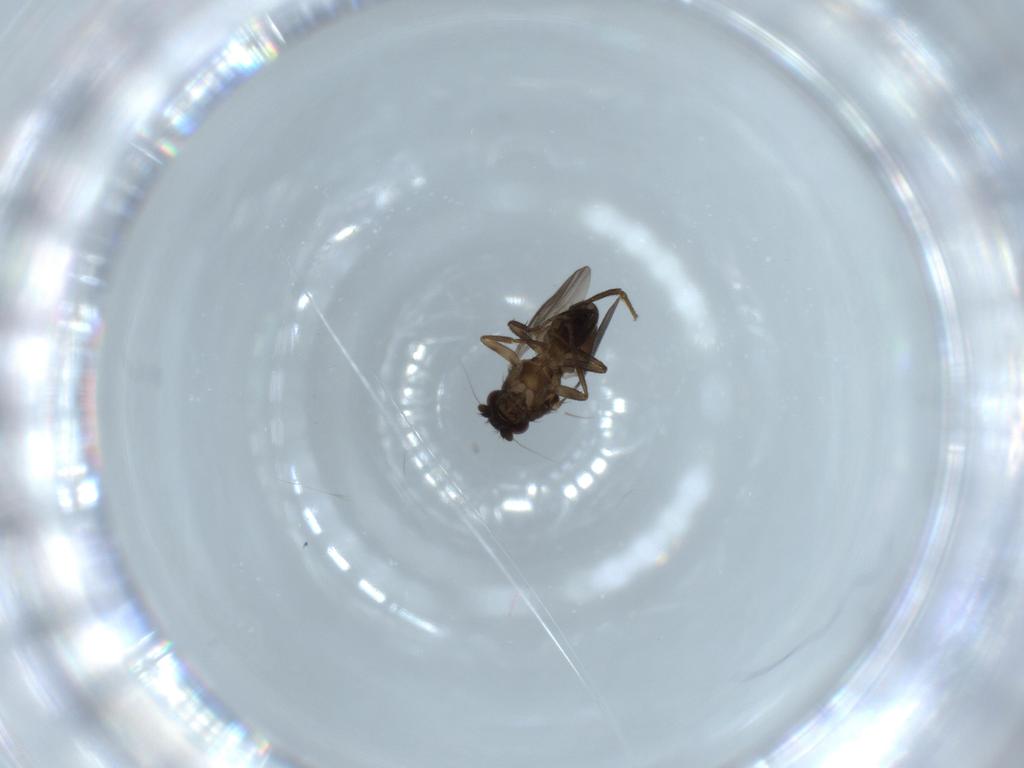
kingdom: Animalia
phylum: Arthropoda
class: Insecta
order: Diptera
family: Sphaeroceridae
